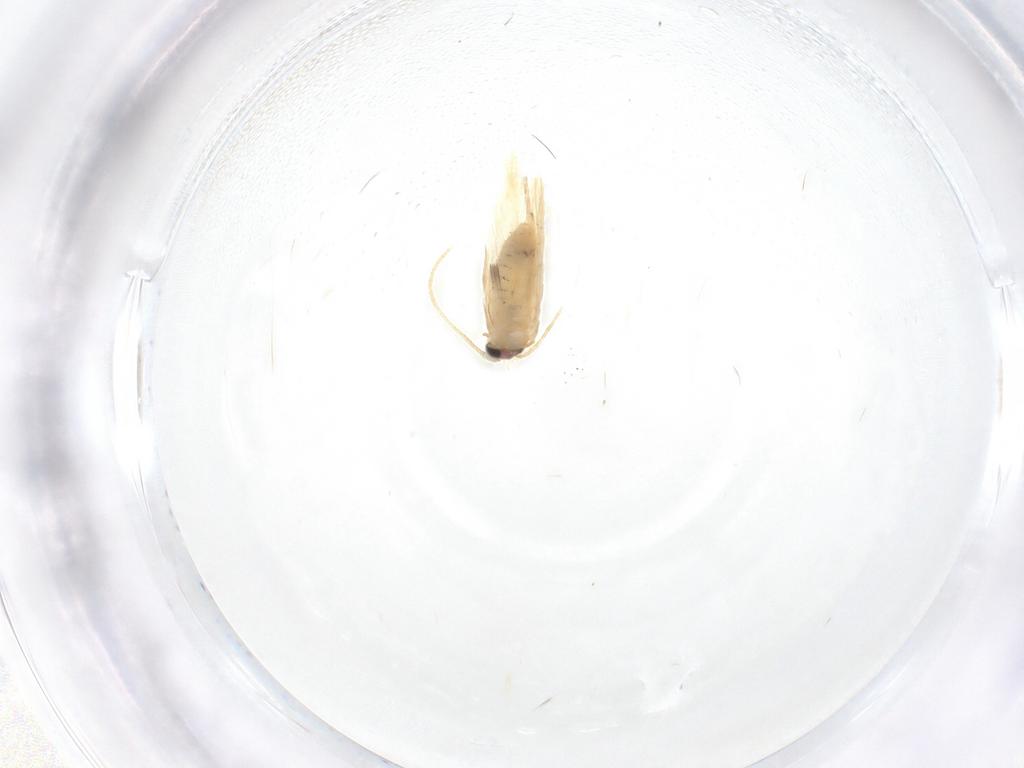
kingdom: Animalia
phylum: Arthropoda
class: Insecta
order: Lepidoptera
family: Nepticulidae
